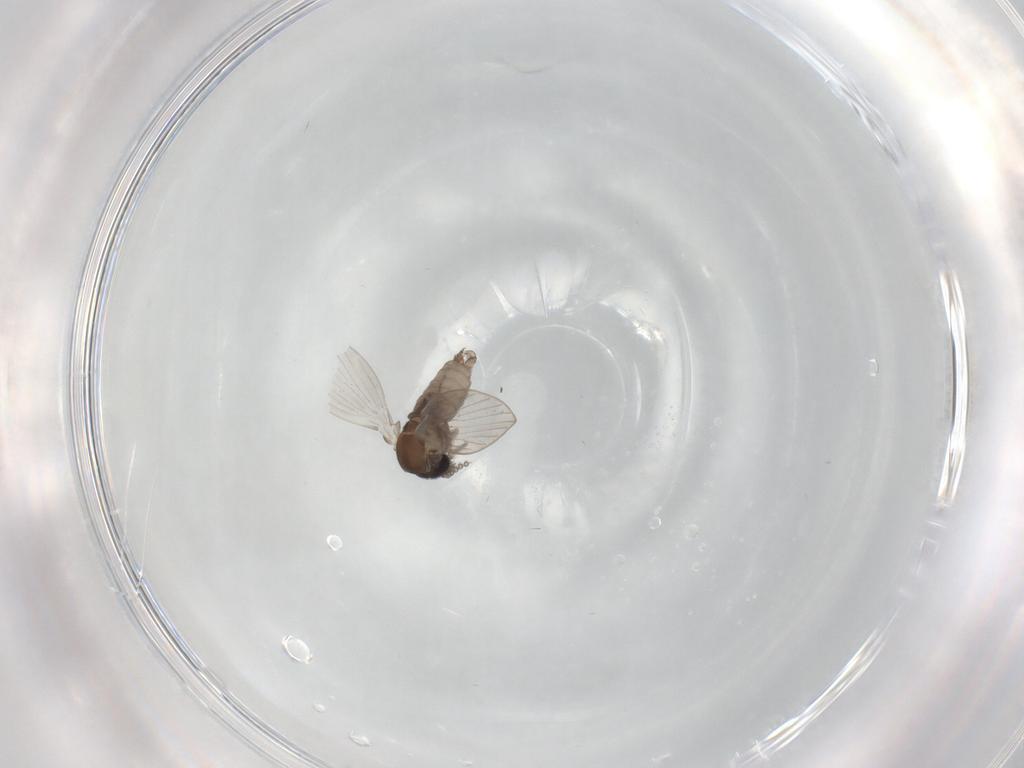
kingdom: Animalia
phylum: Arthropoda
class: Insecta
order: Diptera
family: Psychodidae
